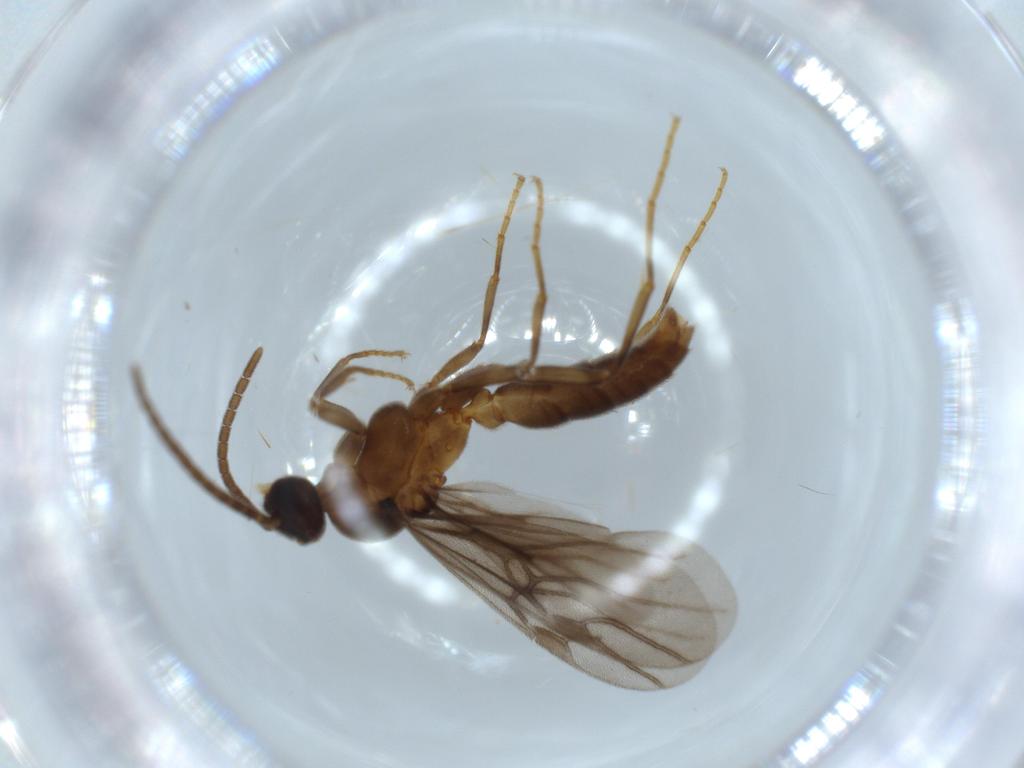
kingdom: Animalia
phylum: Arthropoda
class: Insecta
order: Hymenoptera
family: Formicidae
